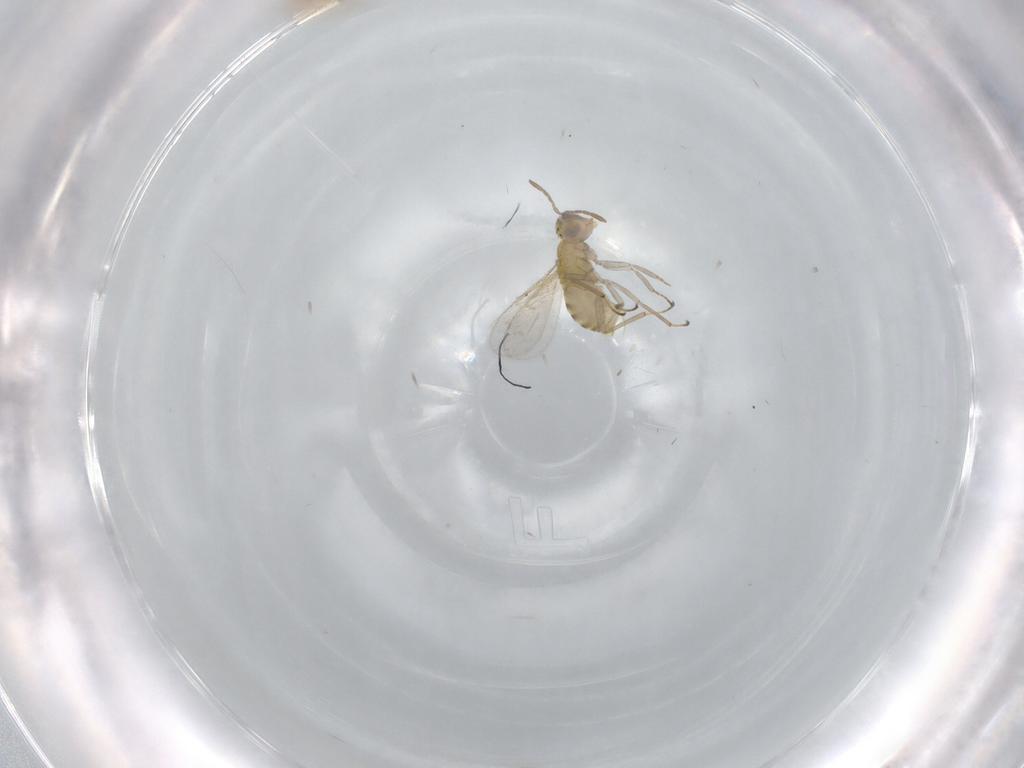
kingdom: Animalia
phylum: Arthropoda
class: Insecta
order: Hymenoptera
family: Aphelinidae
